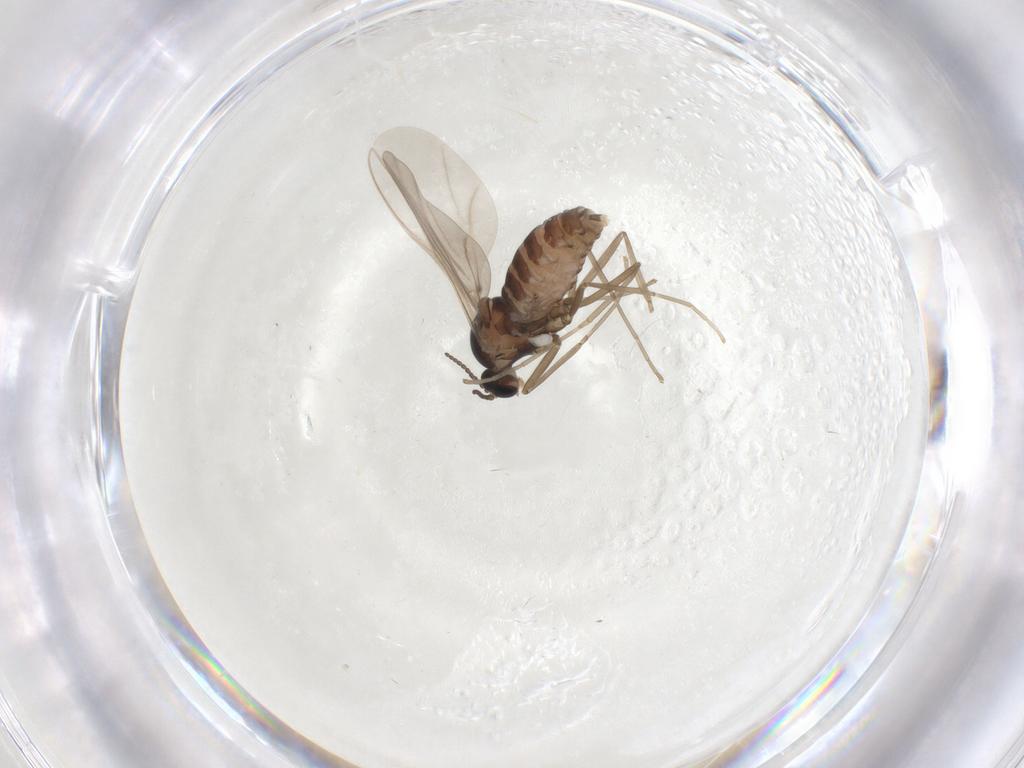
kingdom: Animalia
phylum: Arthropoda
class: Insecta
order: Diptera
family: Cecidomyiidae
